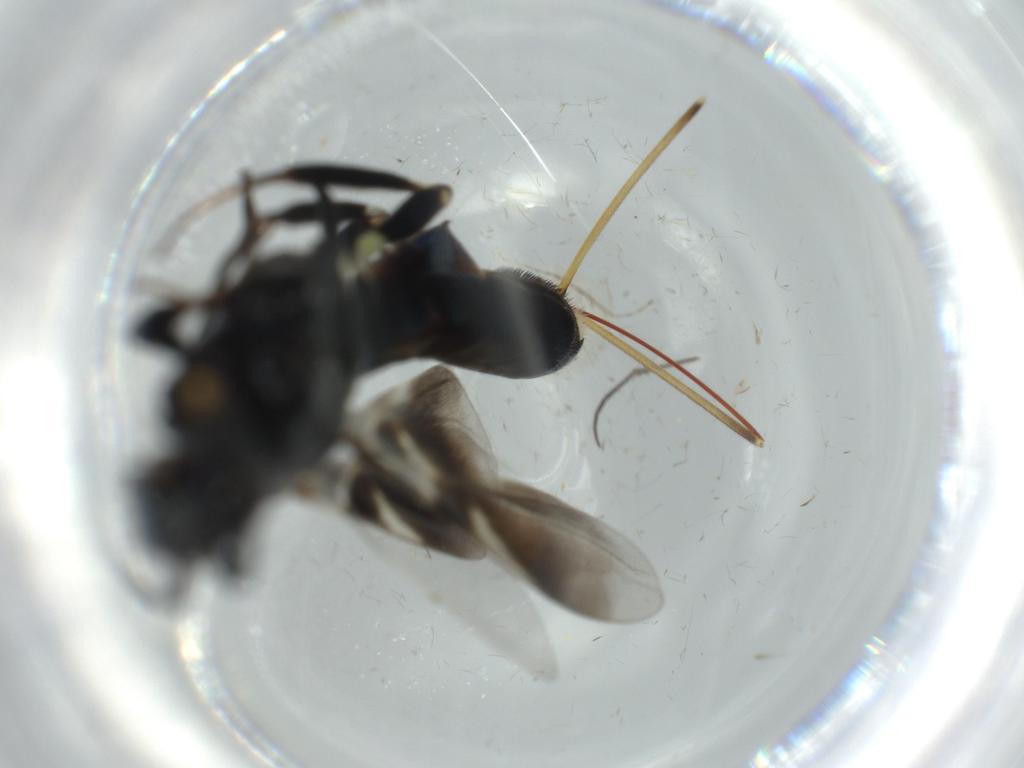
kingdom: Animalia
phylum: Arthropoda
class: Insecta
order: Hymenoptera
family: Eupelmidae
